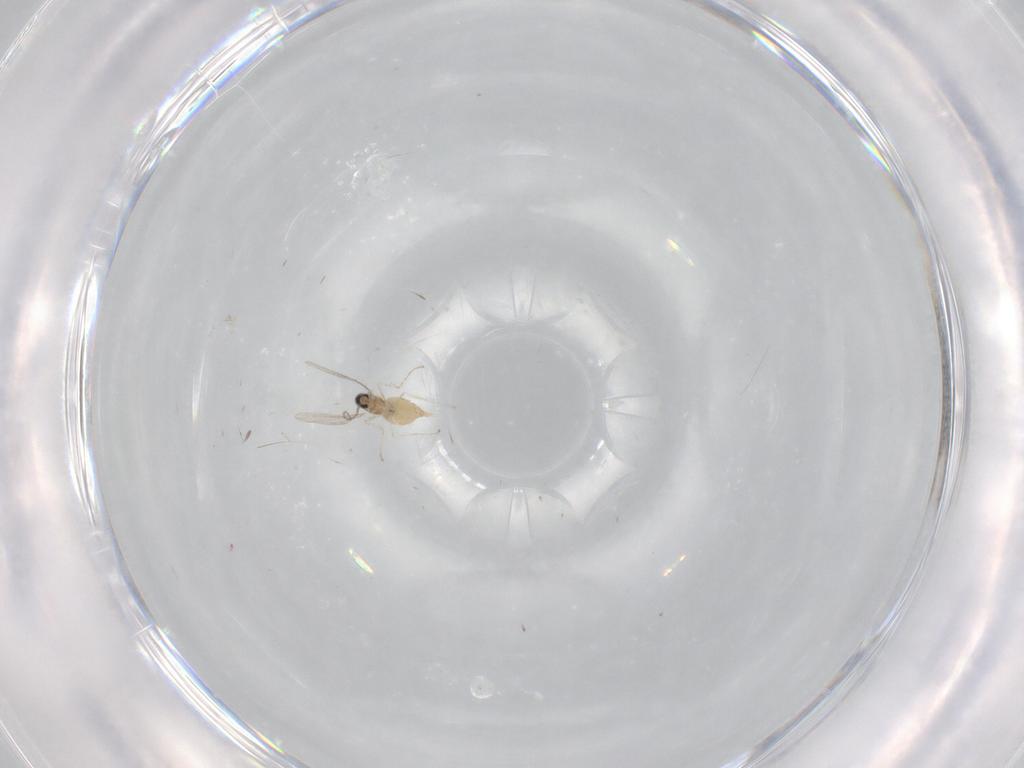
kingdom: Animalia
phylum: Arthropoda
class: Insecta
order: Diptera
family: Cecidomyiidae
